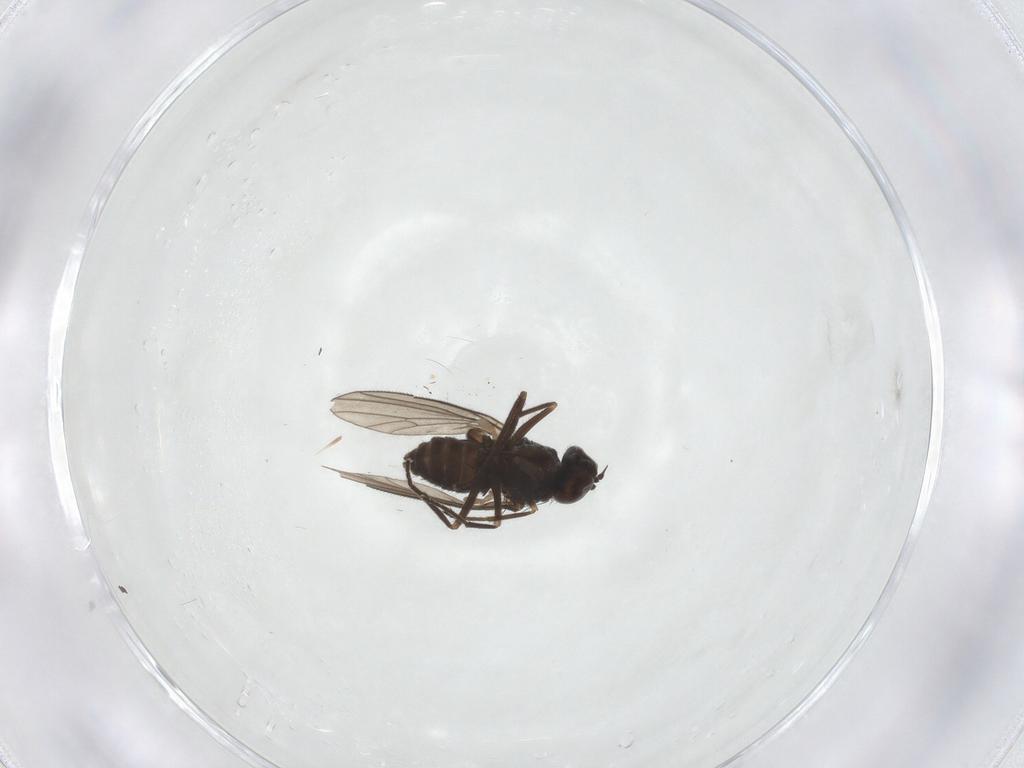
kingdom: Animalia
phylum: Arthropoda
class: Insecta
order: Diptera
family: Dolichopodidae
